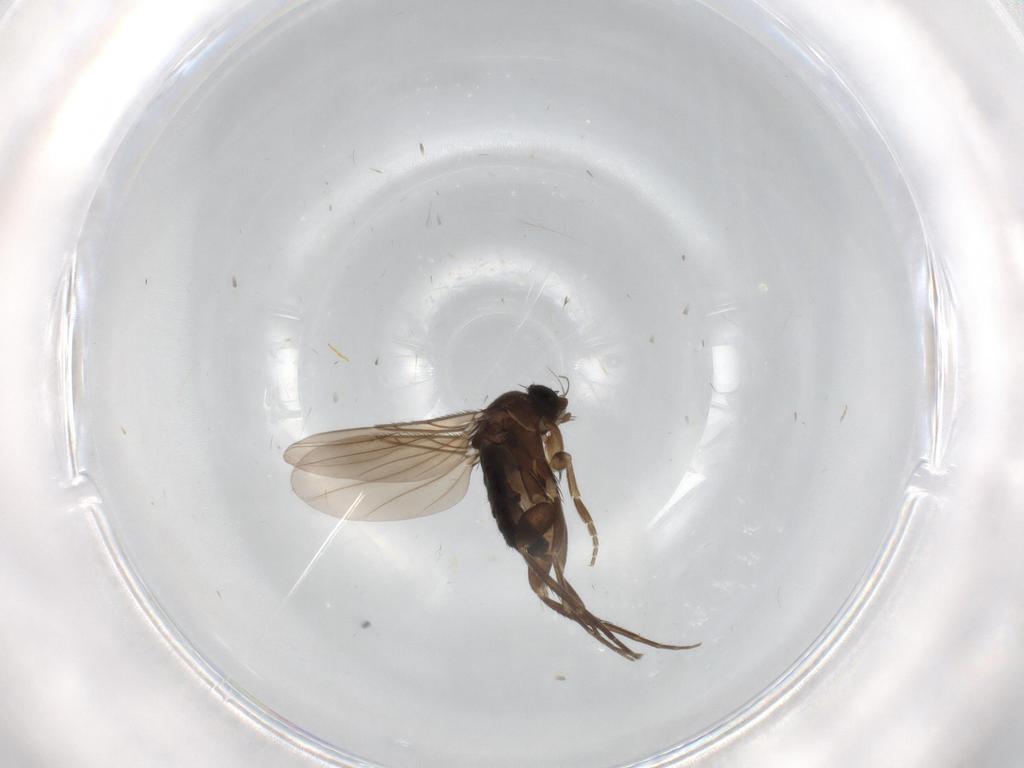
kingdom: Animalia
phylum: Arthropoda
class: Insecta
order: Diptera
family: Phoridae
